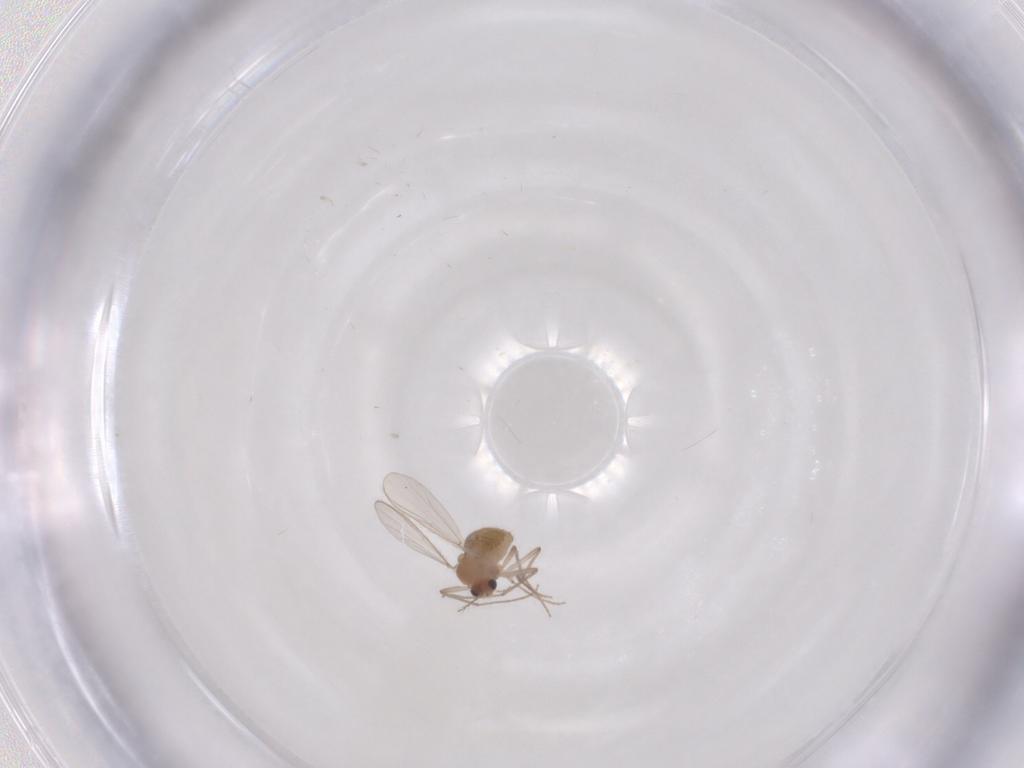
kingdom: Animalia
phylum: Arthropoda
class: Insecta
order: Diptera
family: Chironomidae
